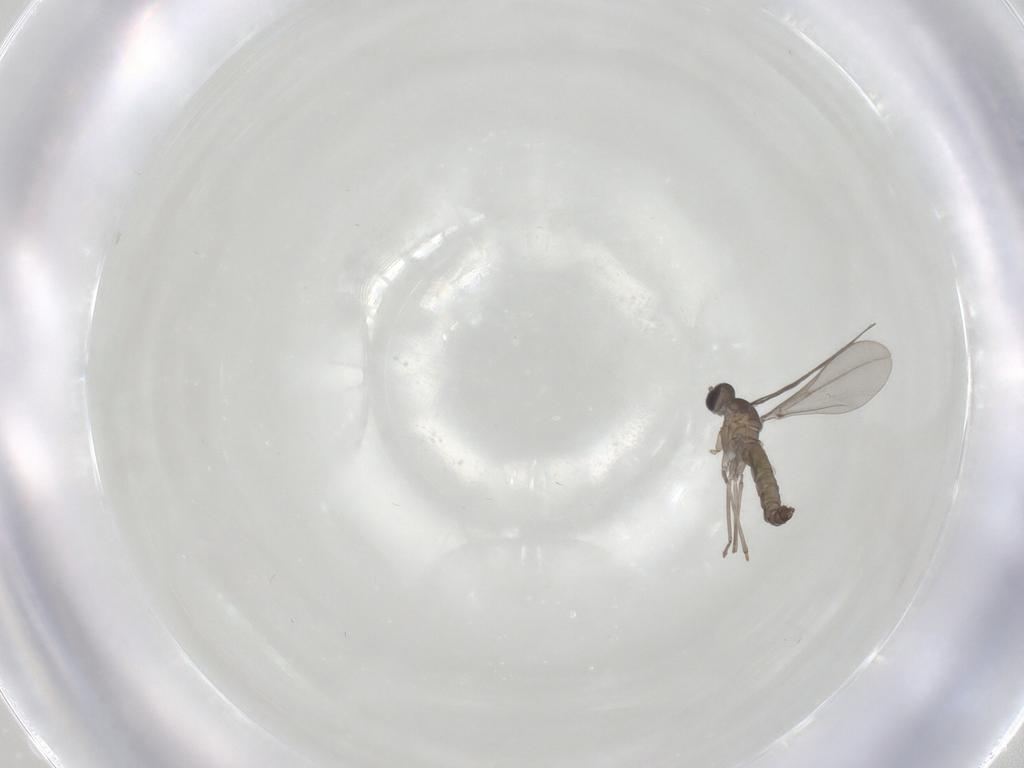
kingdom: Animalia
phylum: Arthropoda
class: Insecta
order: Diptera
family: Cecidomyiidae
